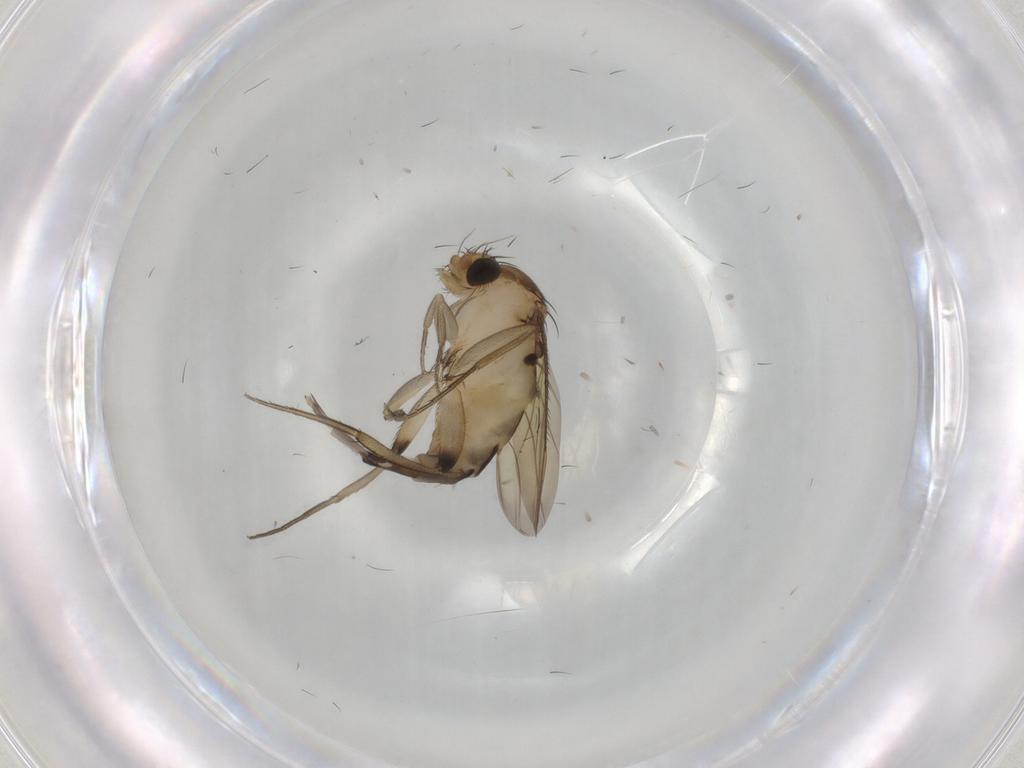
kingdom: Animalia
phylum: Arthropoda
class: Insecta
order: Diptera
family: Phoridae
